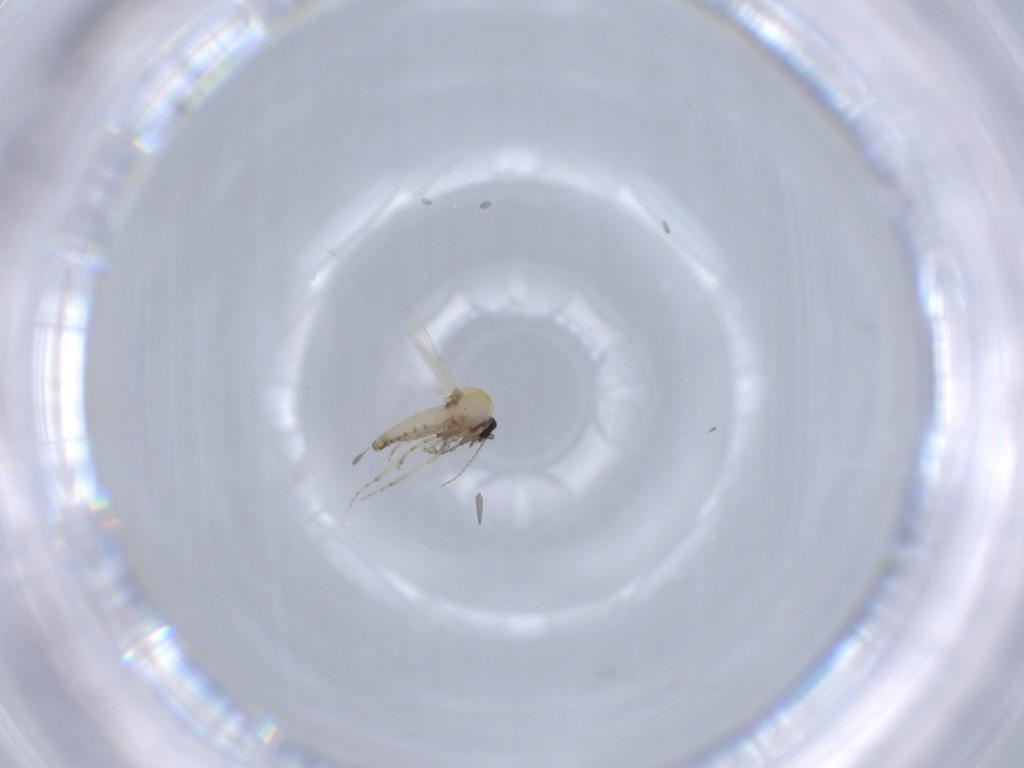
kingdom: Animalia
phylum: Arthropoda
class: Insecta
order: Diptera
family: Ceratopogonidae
